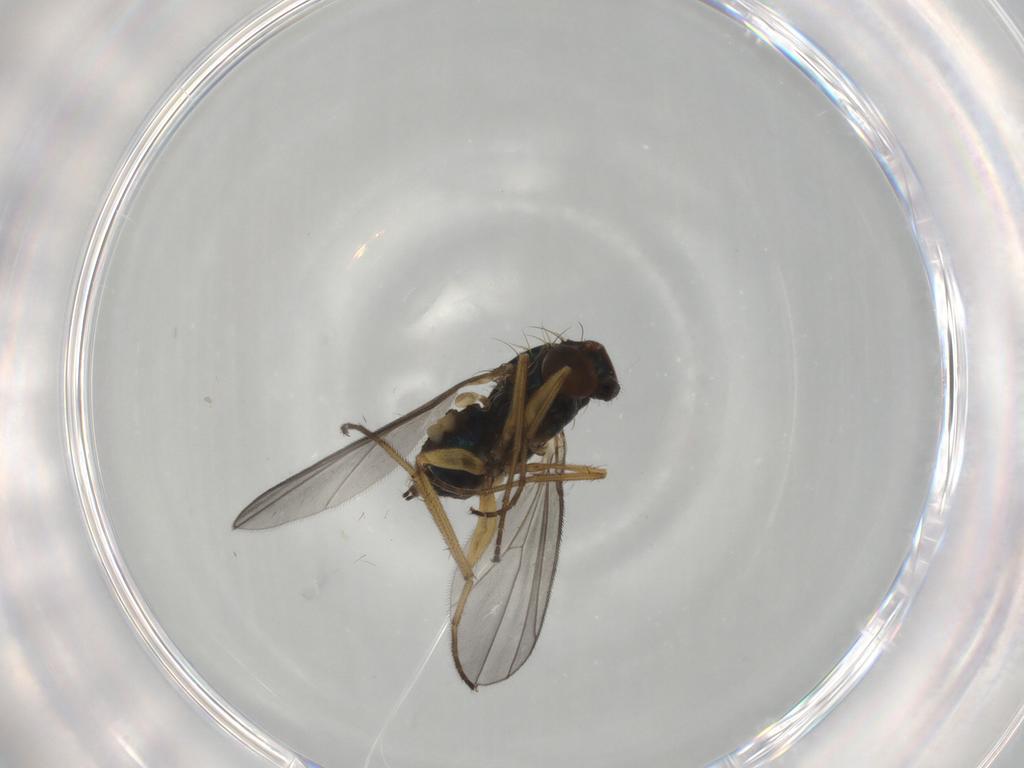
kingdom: Animalia
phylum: Arthropoda
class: Insecta
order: Diptera
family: Dolichopodidae
